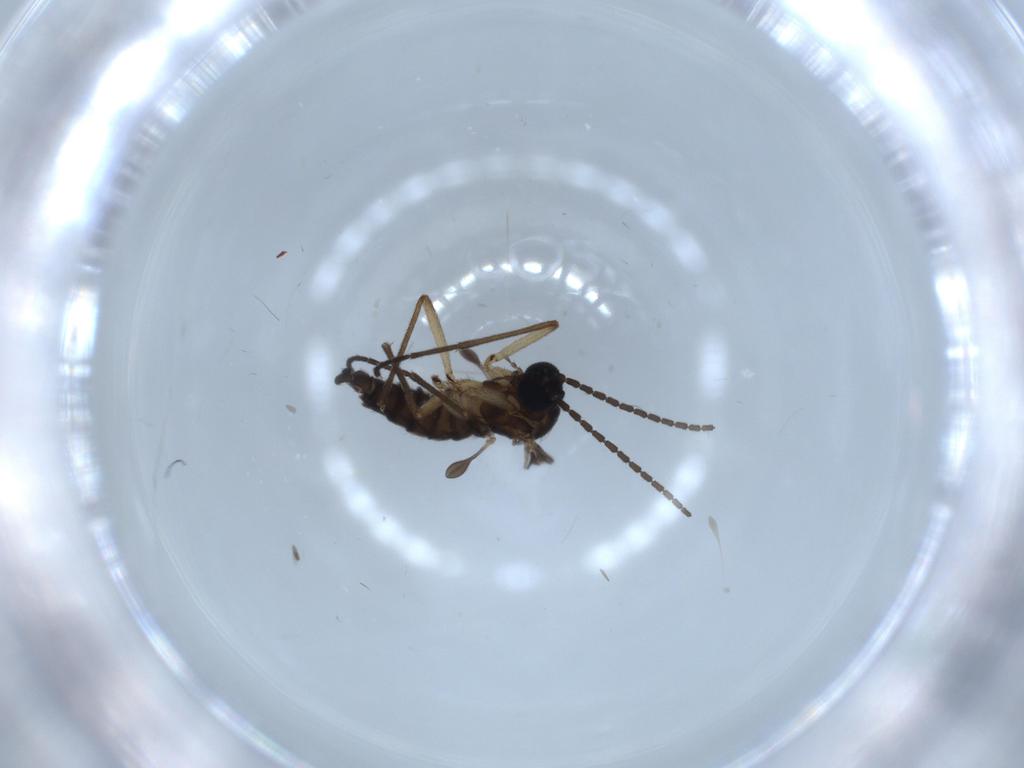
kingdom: Animalia
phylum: Arthropoda
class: Insecta
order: Diptera
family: Sciaridae
